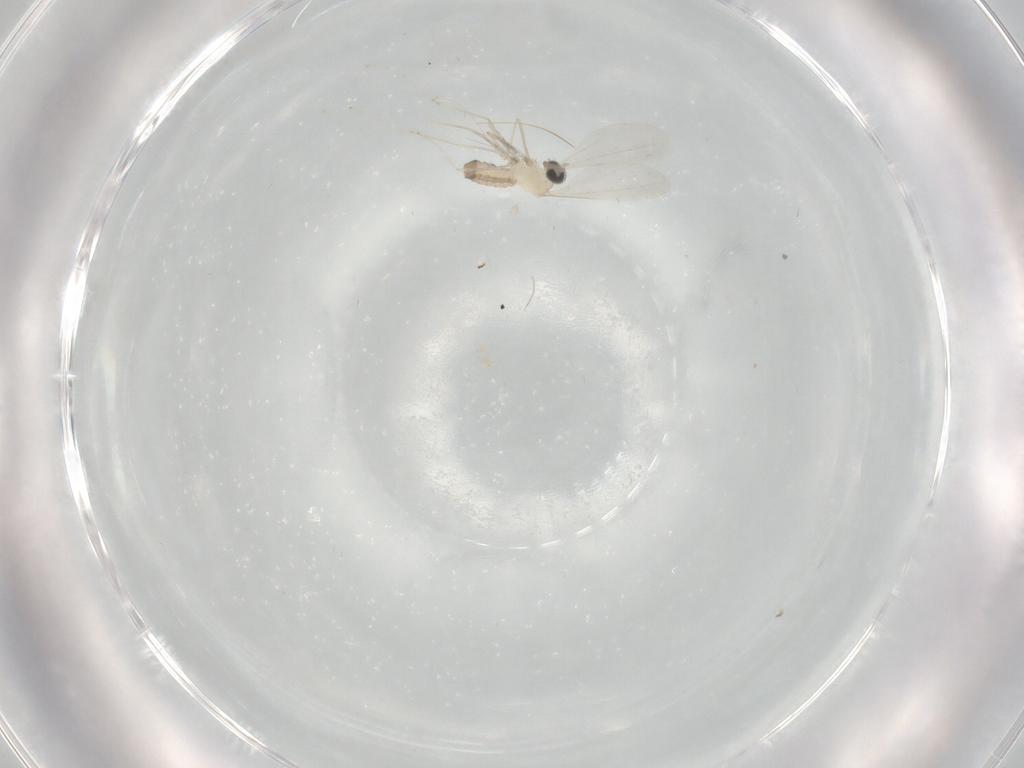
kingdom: Animalia
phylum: Arthropoda
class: Insecta
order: Diptera
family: Cecidomyiidae
